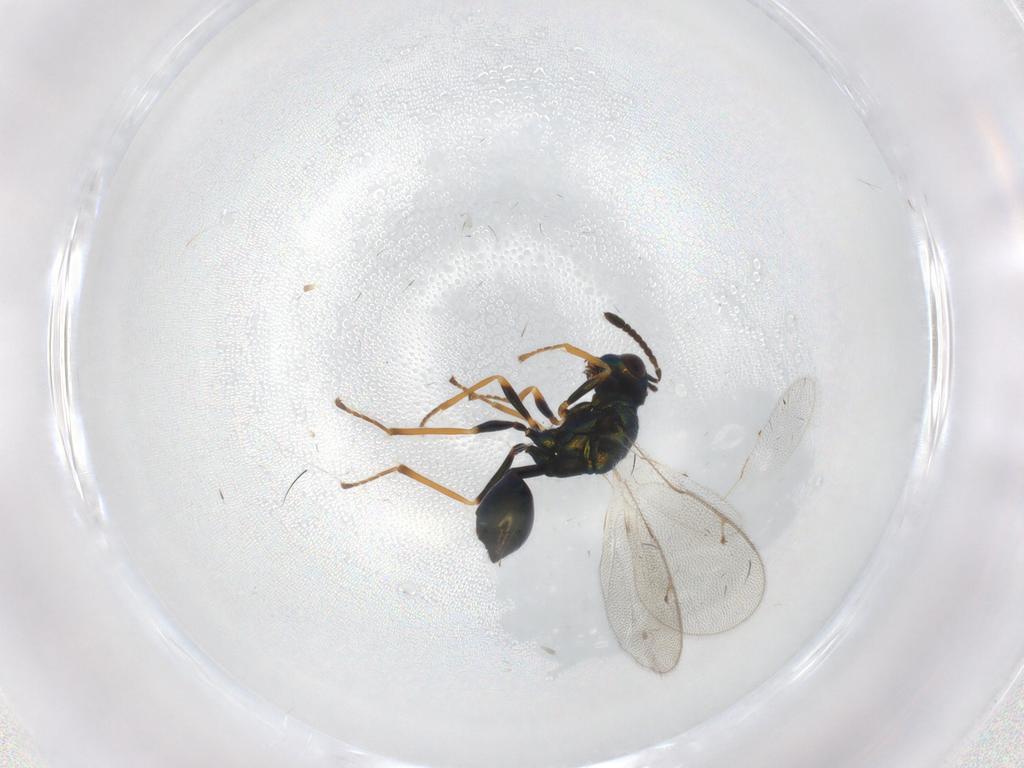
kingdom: Animalia
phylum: Arthropoda
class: Insecta
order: Hymenoptera
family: Pteromalidae
